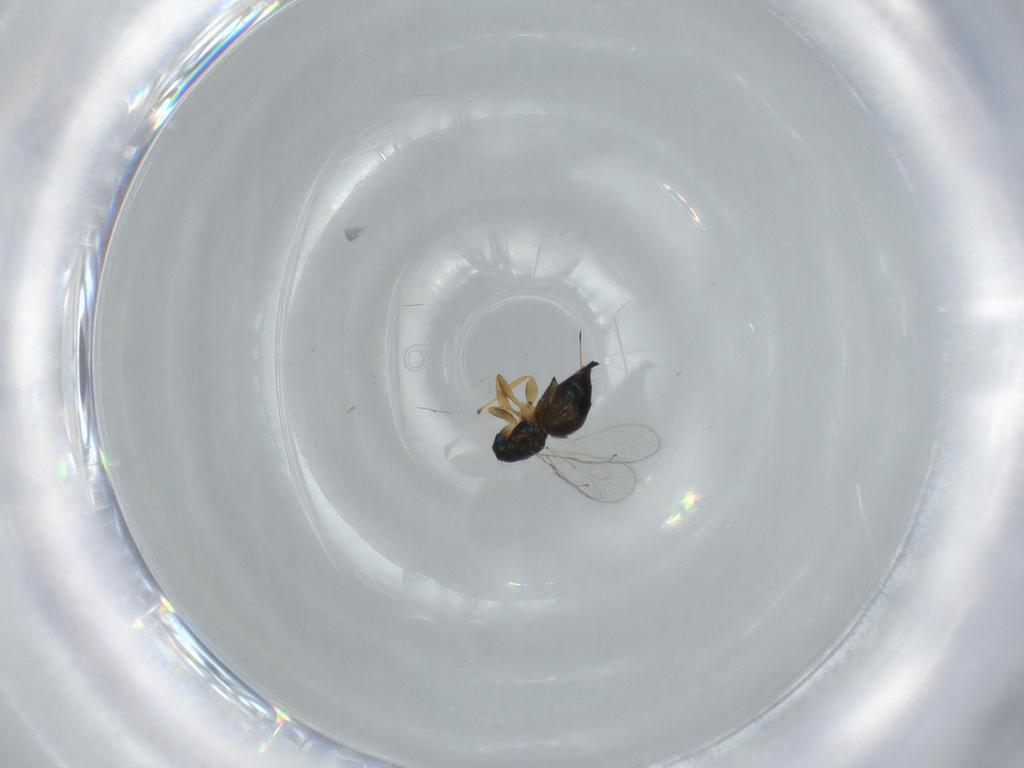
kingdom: Animalia
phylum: Arthropoda
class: Insecta
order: Hymenoptera
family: Torymidae
